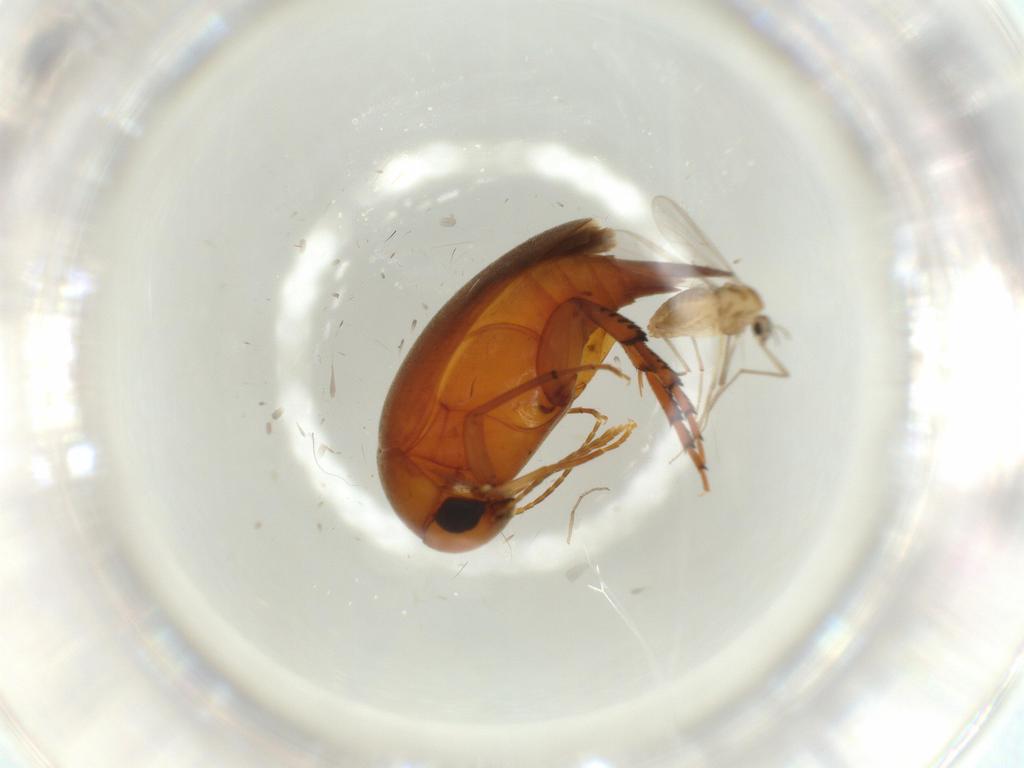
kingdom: Animalia
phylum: Arthropoda
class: Insecta
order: Diptera
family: Chironomidae
